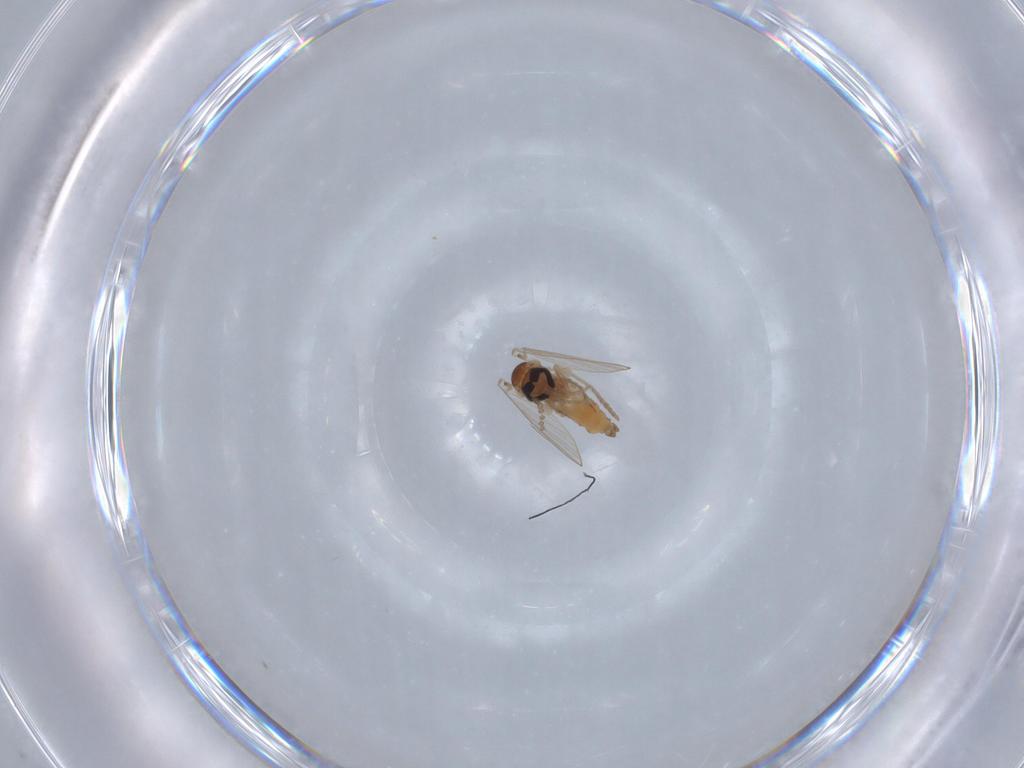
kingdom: Animalia
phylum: Arthropoda
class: Insecta
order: Diptera
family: Psychodidae
